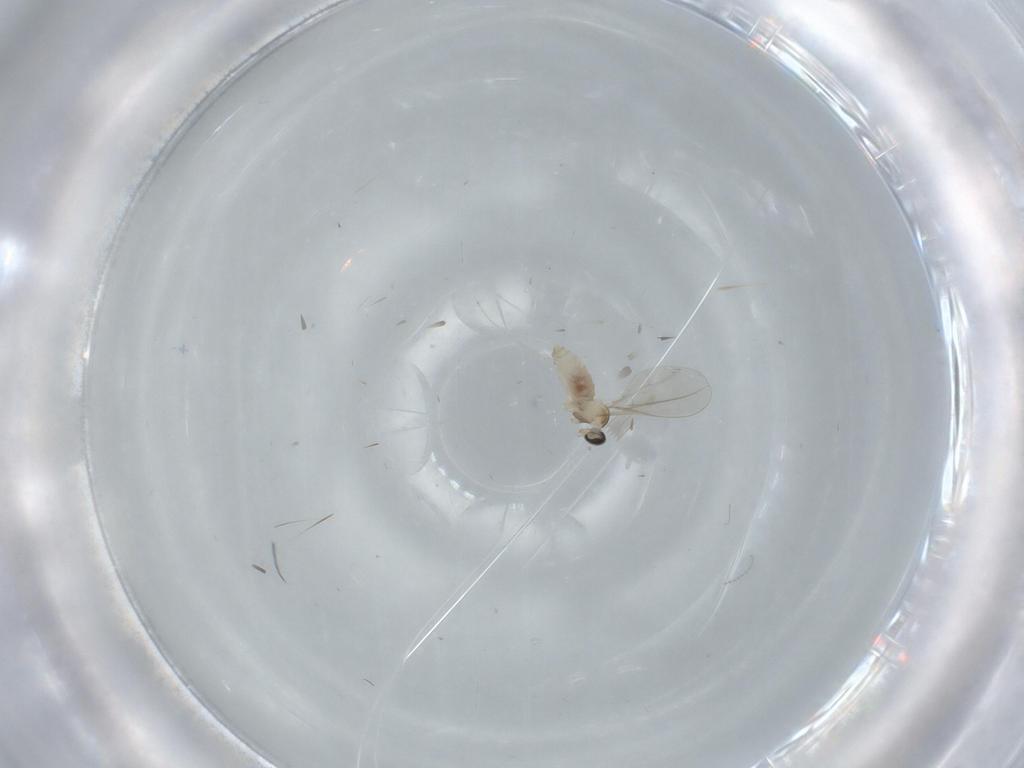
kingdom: Animalia
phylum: Arthropoda
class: Insecta
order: Diptera
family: Cecidomyiidae
